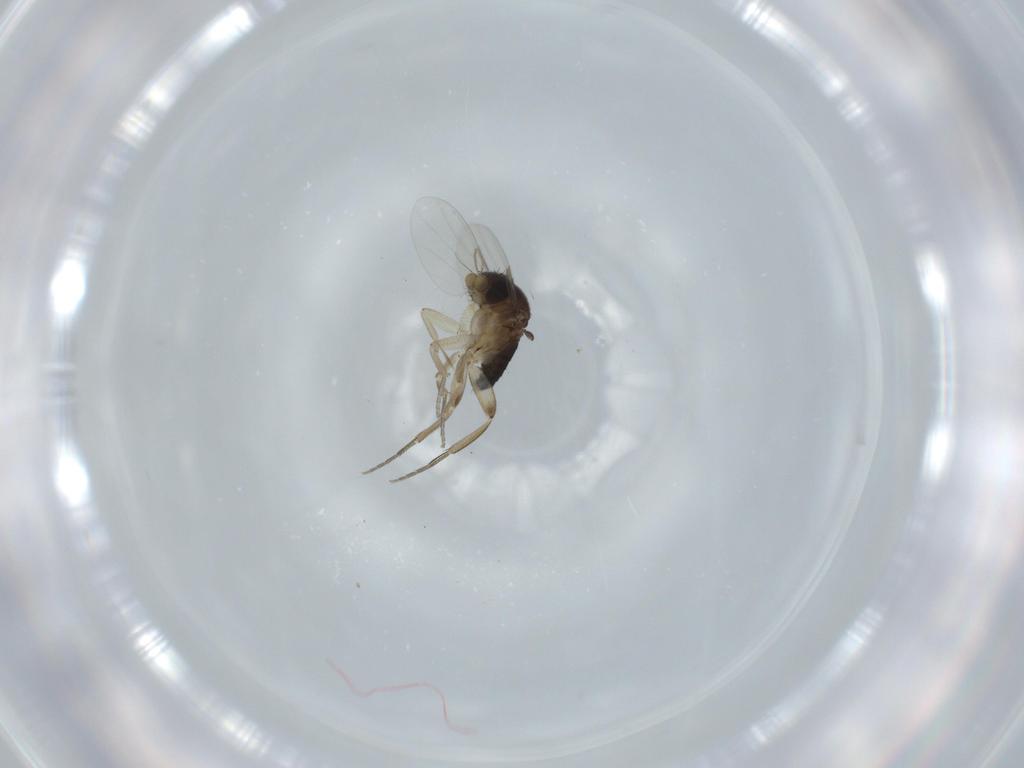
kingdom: Animalia
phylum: Arthropoda
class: Insecta
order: Diptera
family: Phoridae
